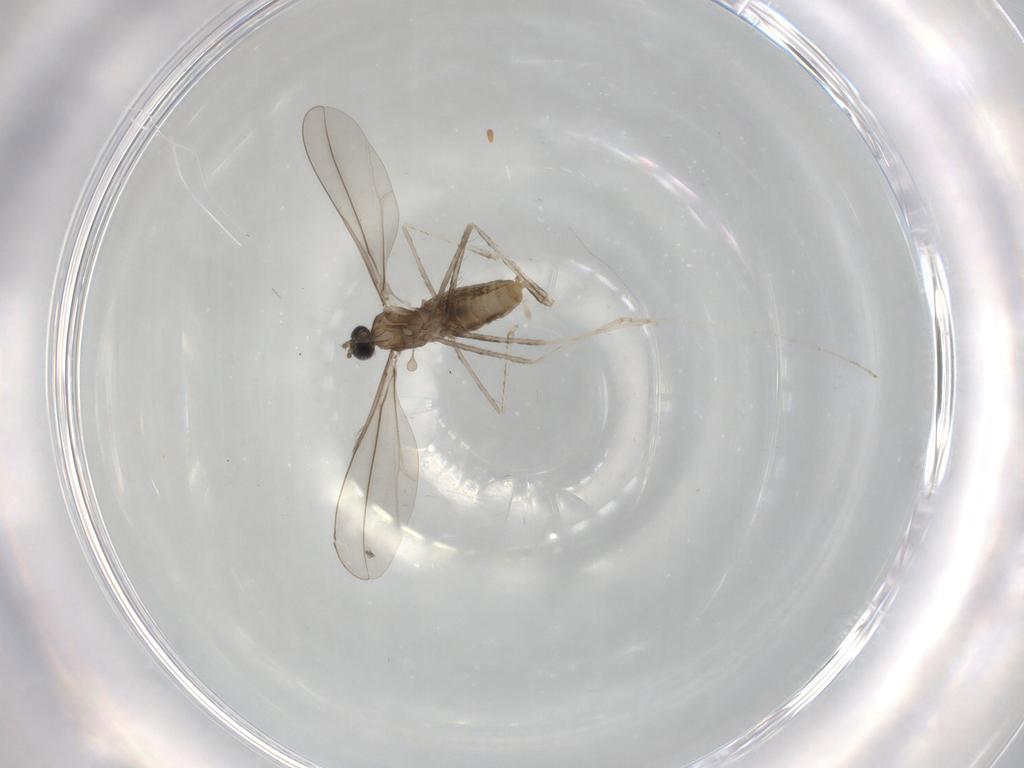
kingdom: Animalia
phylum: Arthropoda
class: Insecta
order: Diptera
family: Cecidomyiidae
